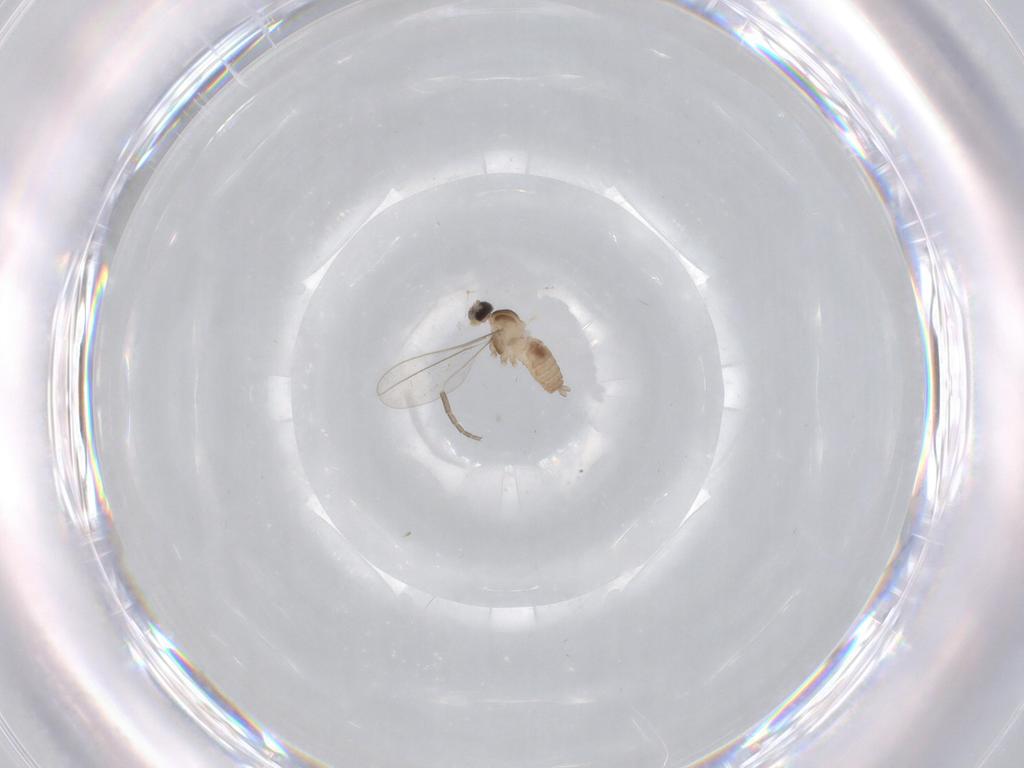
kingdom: Animalia
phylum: Arthropoda
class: Insecta
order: Diptera
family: Cecidomyiidae
